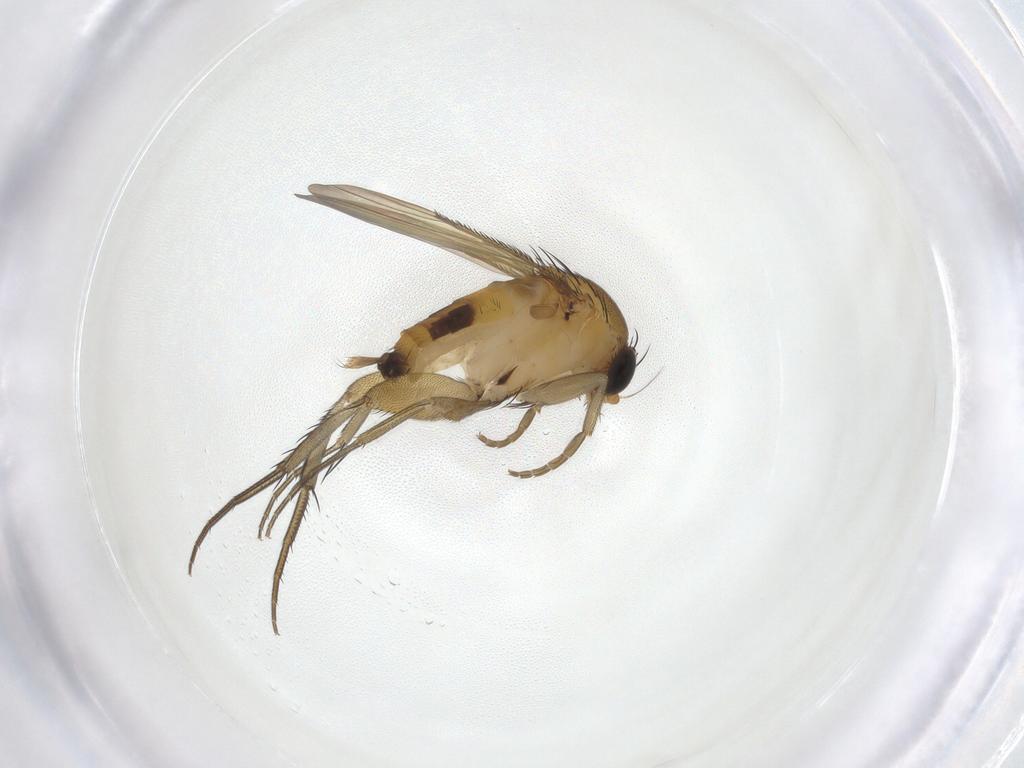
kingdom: Animalia
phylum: Arthropoda
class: Insecta
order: Diptera
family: Phoridae
